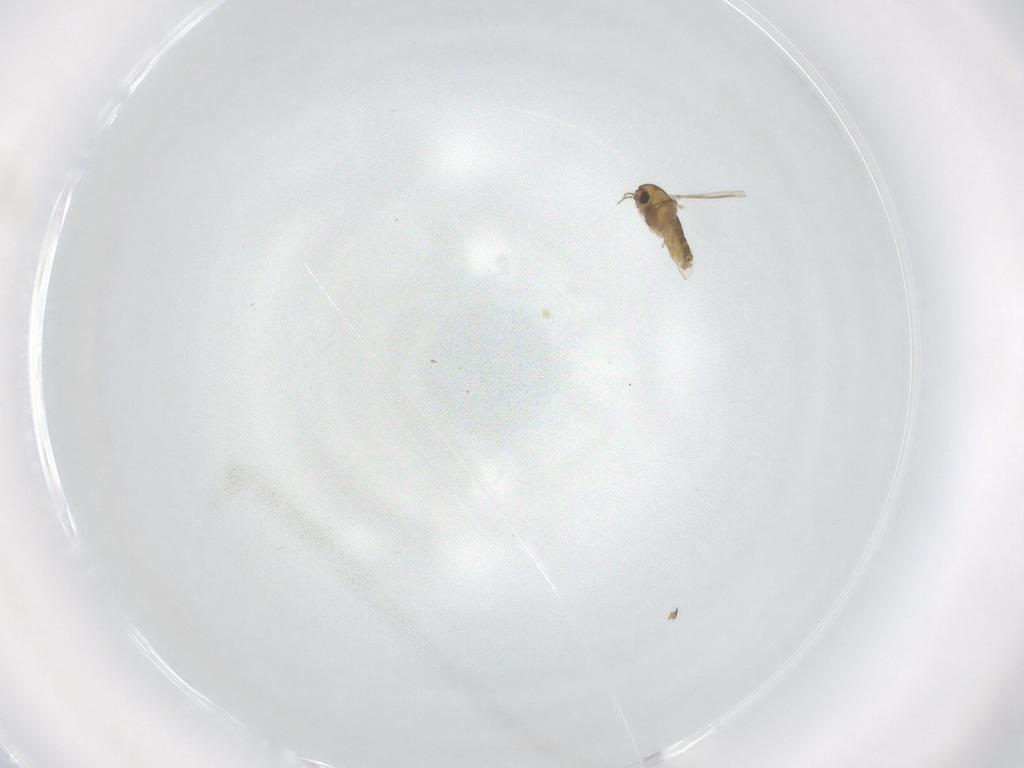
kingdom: Animalia
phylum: Arthropoda
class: Insecta
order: Diptera
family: Chironomidae
